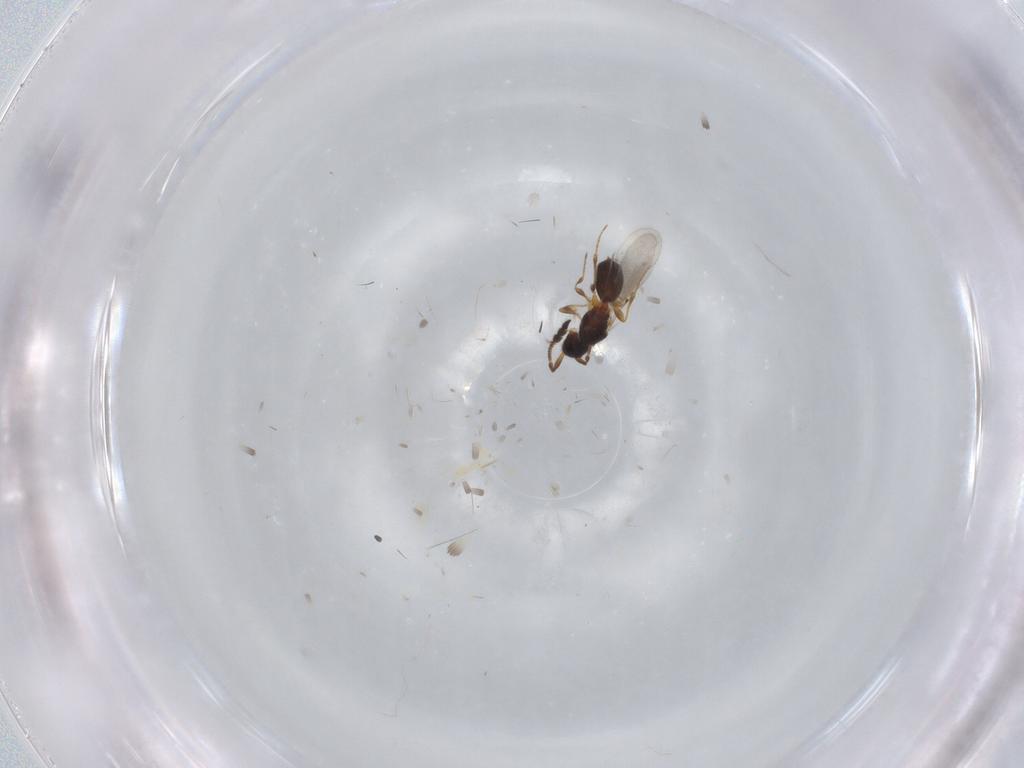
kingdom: Animalia
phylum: Arthropoda
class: Insecta
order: Hymenoptera
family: Diapriidae
